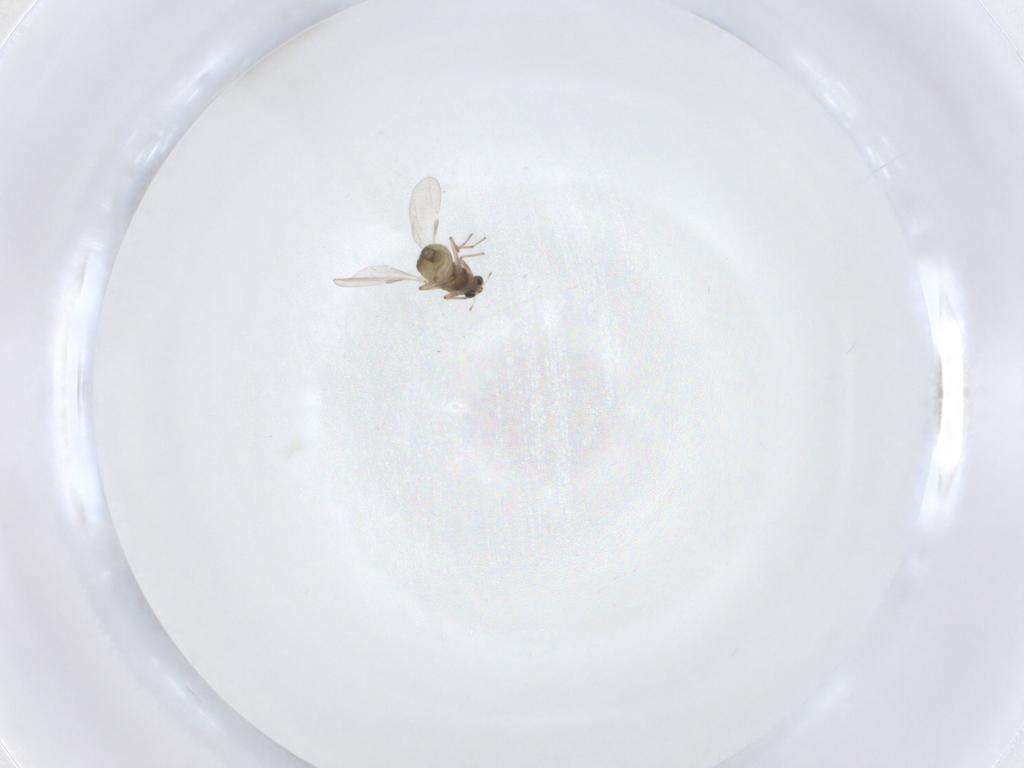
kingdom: Animalia
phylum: Arthropoda
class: Insecta
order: Diptera
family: Chironomidae
